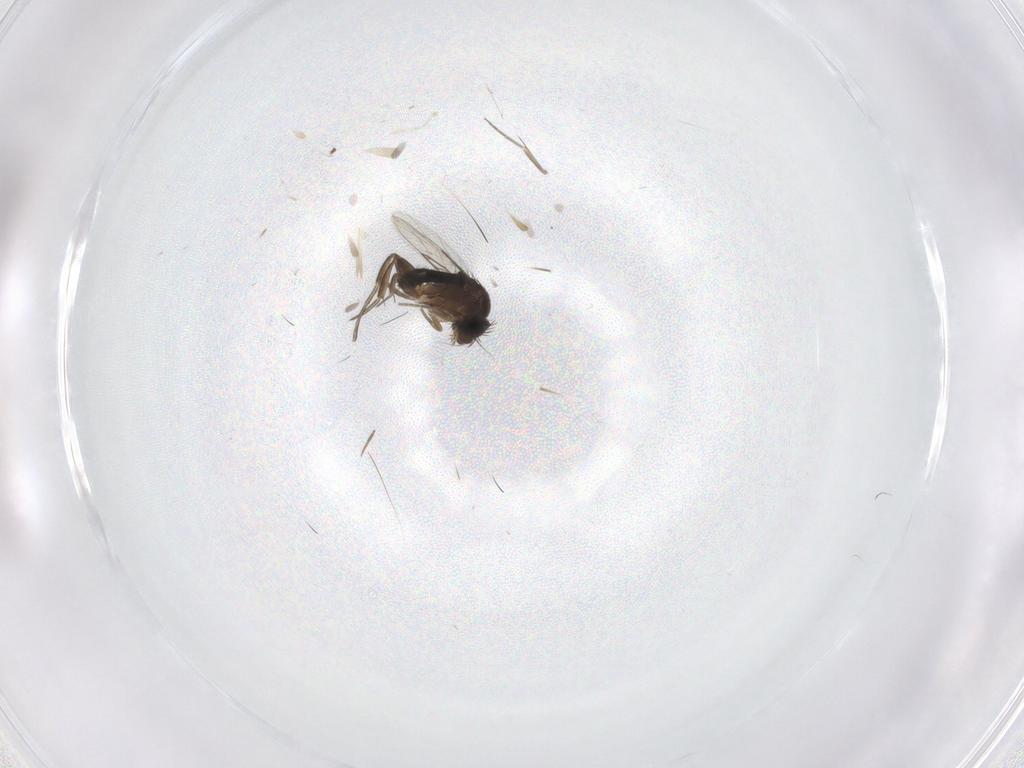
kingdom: Animalia
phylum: Arthropoda
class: Insecta
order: Diptera
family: Phoridae
